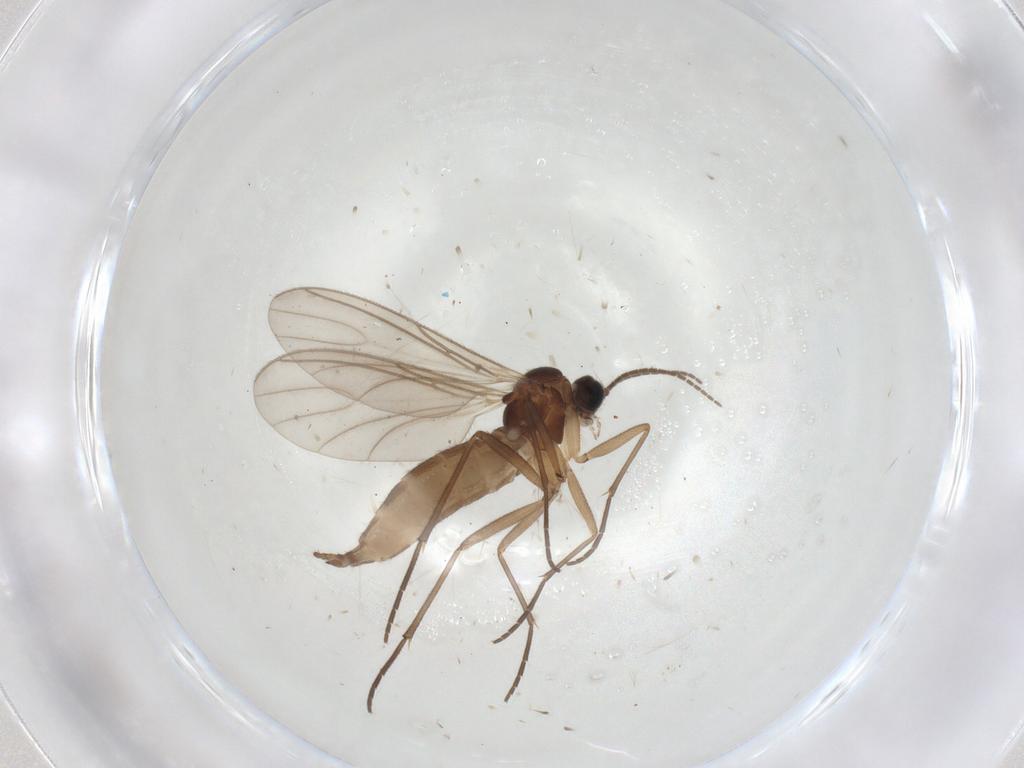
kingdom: Animalia
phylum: Arthropoda
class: Insecta
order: Diptera
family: Sciaridae
